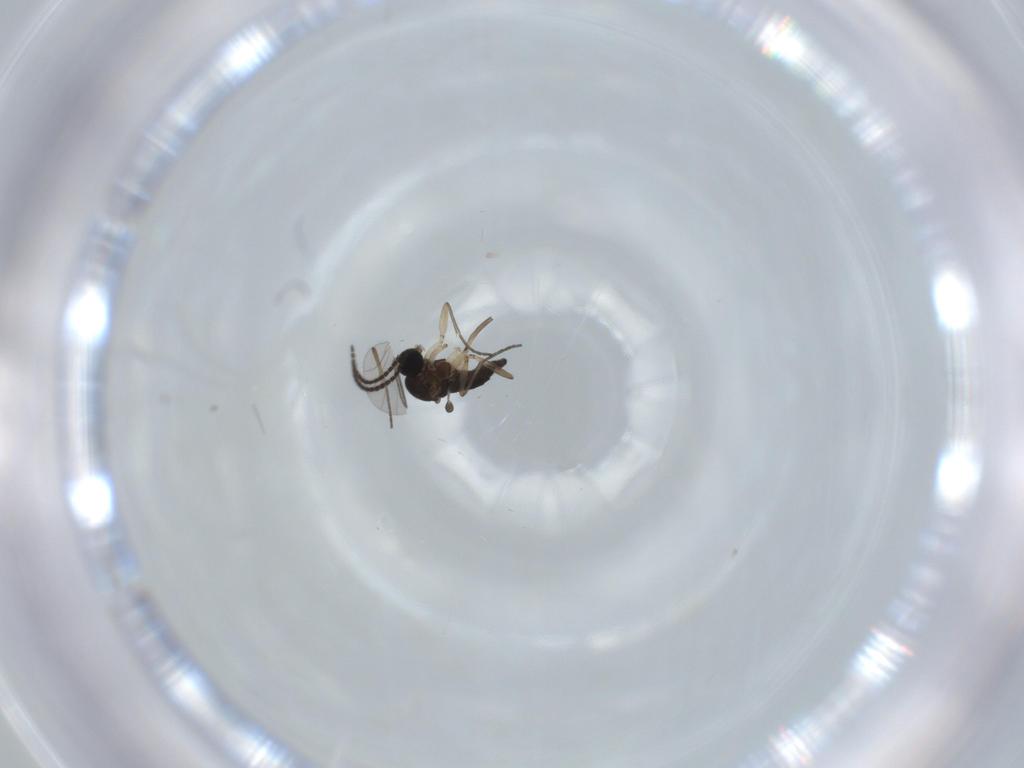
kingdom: Animalia
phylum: Arthropoda
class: Insecta
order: Diptera
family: Sciaridae
